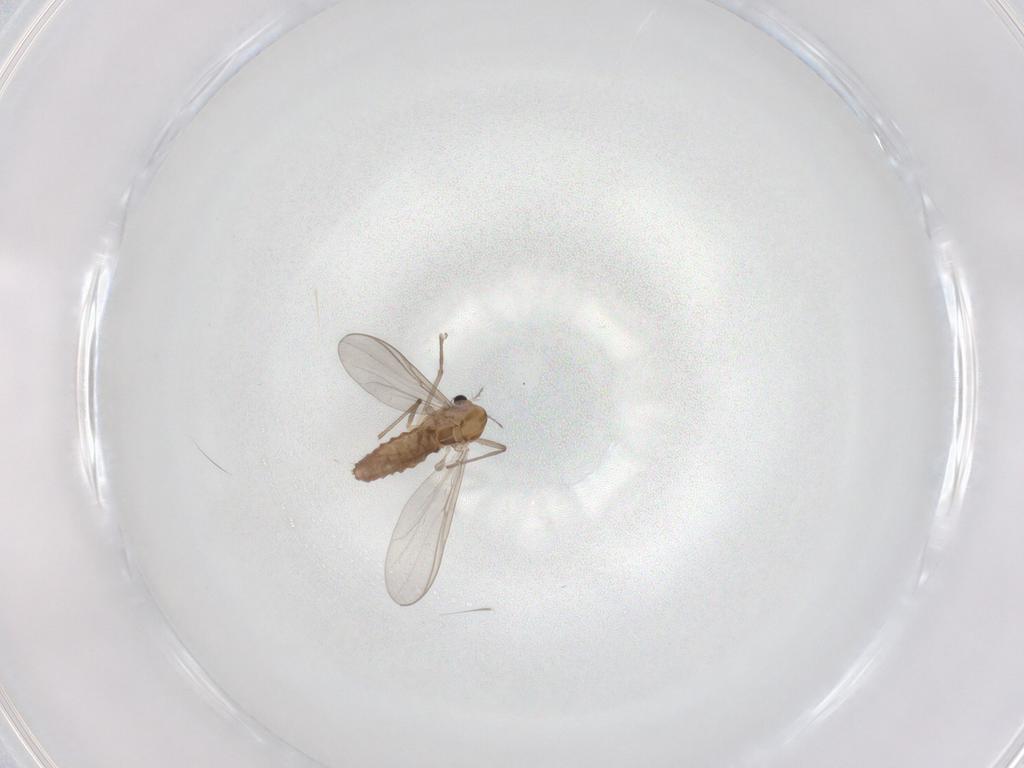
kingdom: Animalia
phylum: Arthropoda
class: Insecta
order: Diptera
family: Chironomidae
